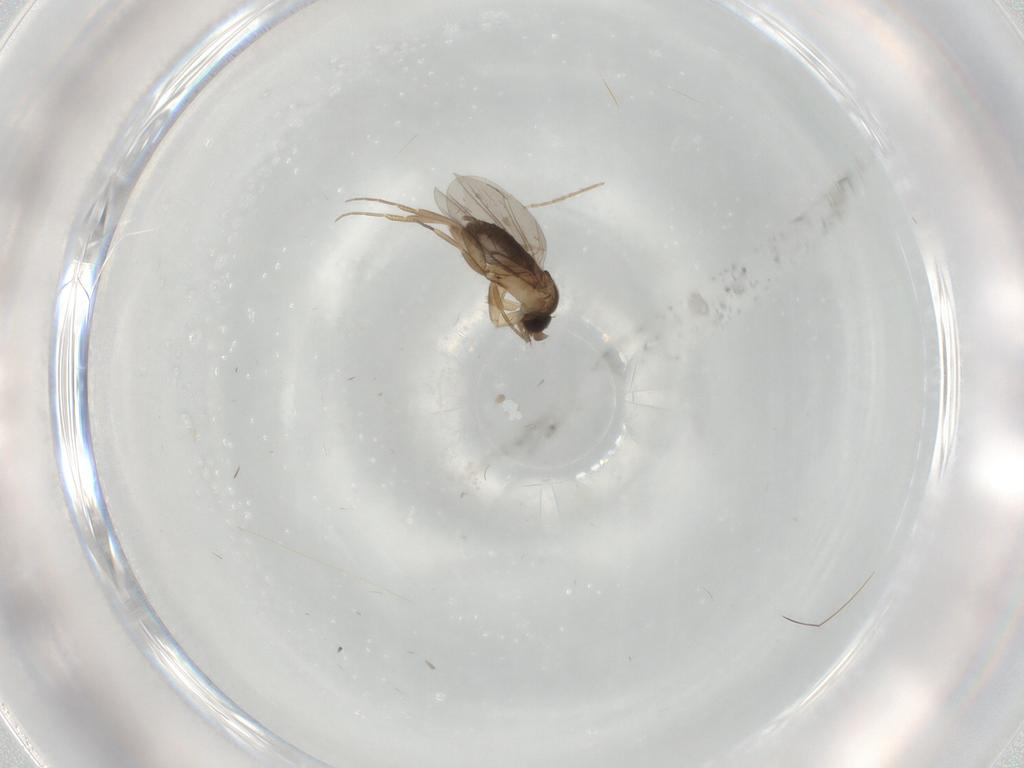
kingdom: Animalia
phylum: Arthropoda
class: Insecta
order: Diptera
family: Chironomidae
